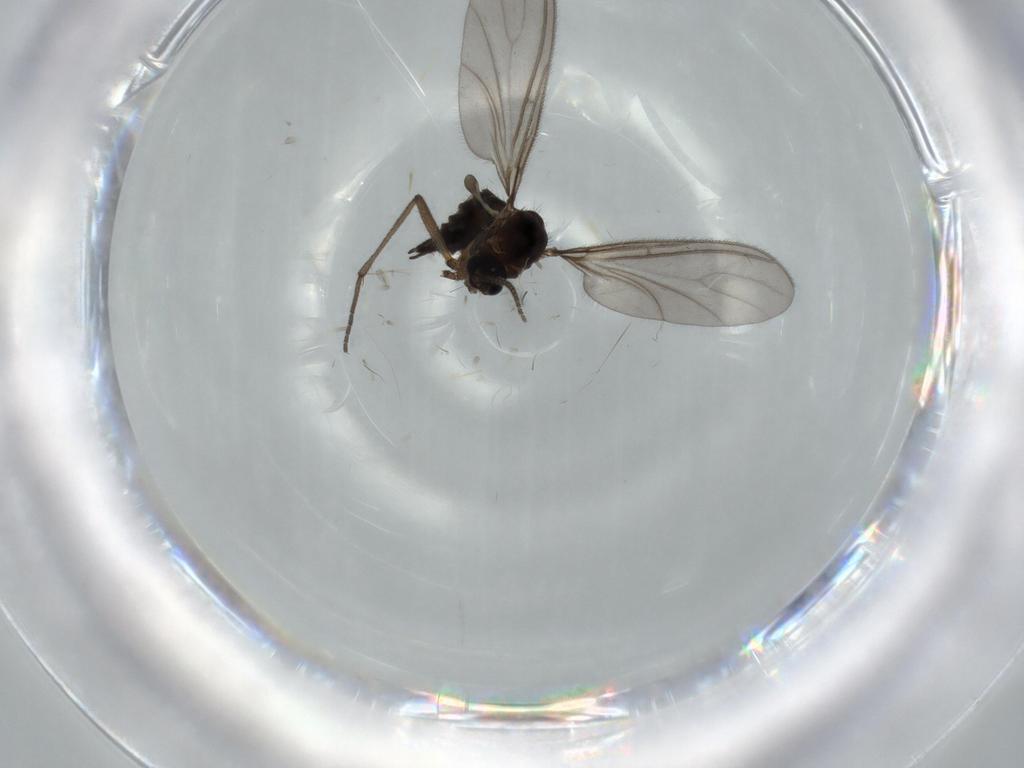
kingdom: Animalia
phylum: Arthropoda
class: Insecta
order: Diptera
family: Sciaridae
